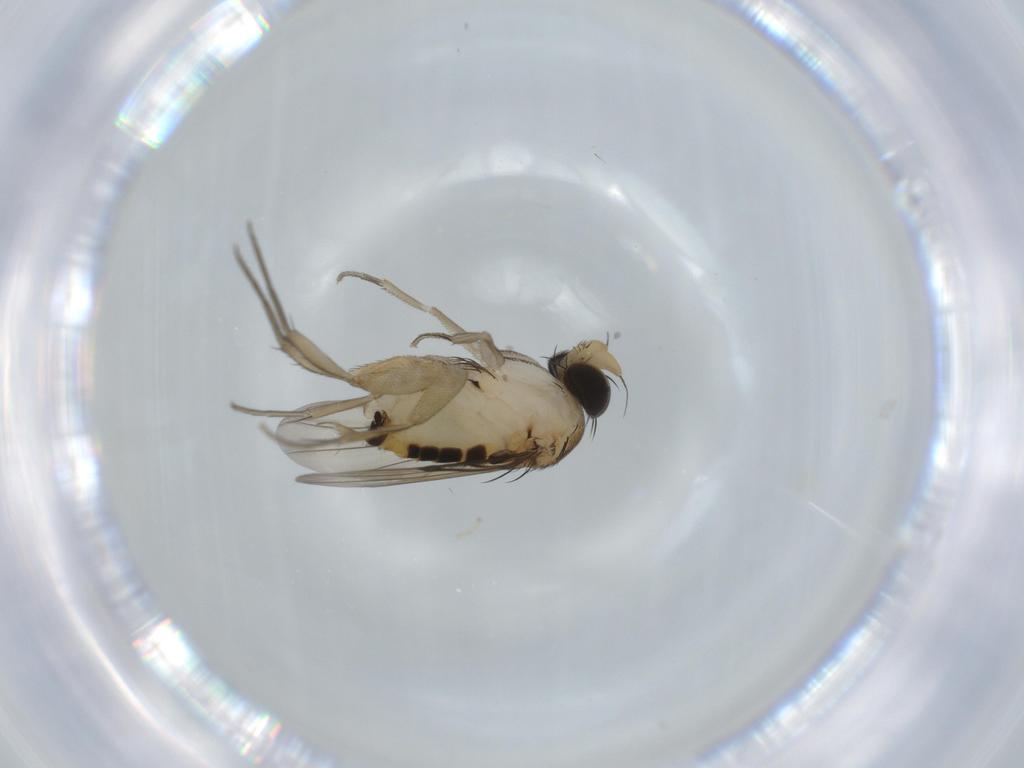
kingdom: Animalia
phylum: Arthropoda
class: Insecta
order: Diptera
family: Phoridae
